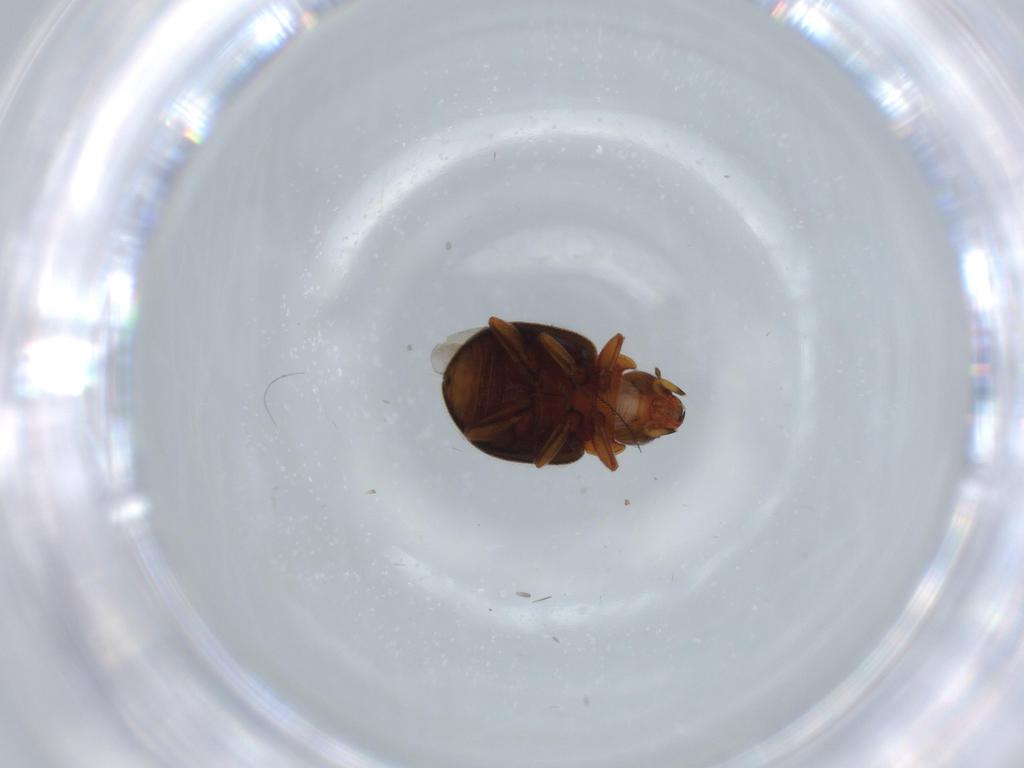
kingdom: Animalia
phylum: Arthropoda
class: Insecta
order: Coleoptera
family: Coccinellidae
